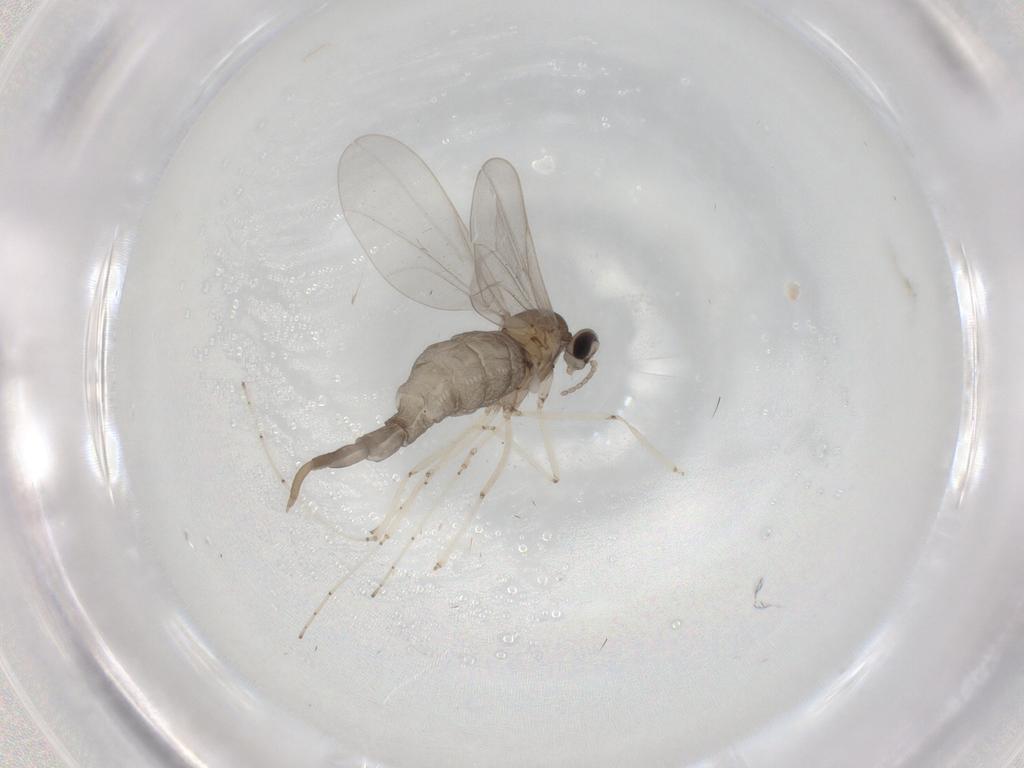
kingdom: Animalia
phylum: Arthropoda
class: Insecta
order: Diptera
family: Cecidomyiidae
